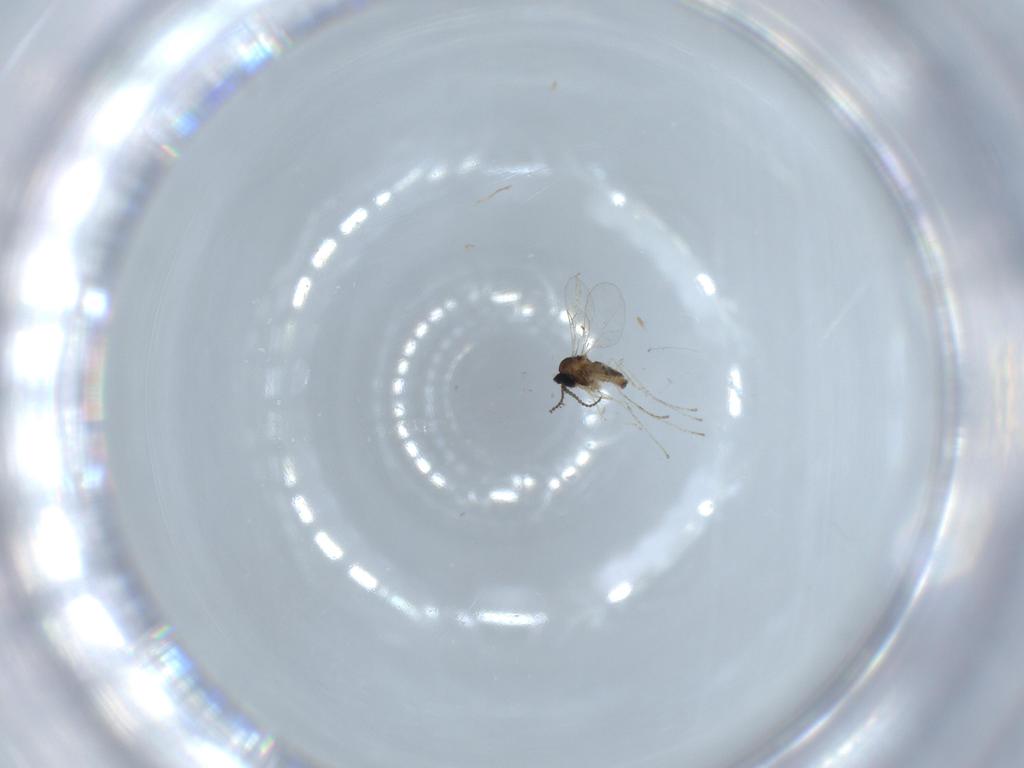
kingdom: Animalia
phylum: Arthropoda
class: Insecta
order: Diptera
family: Cecidomyiidae
